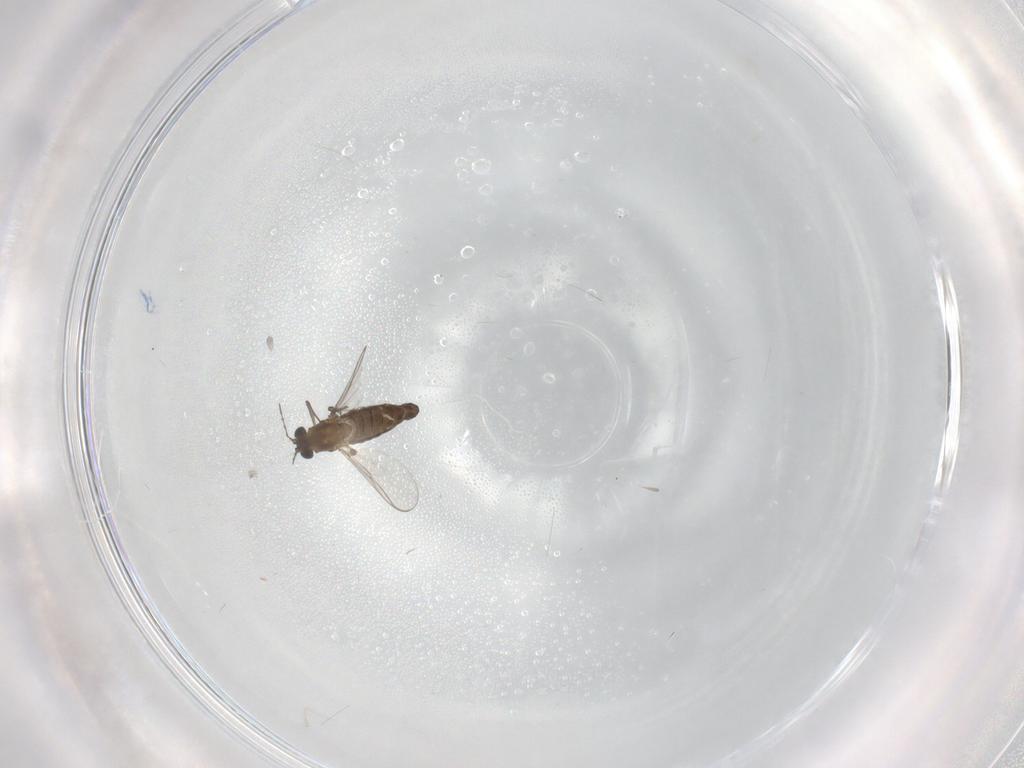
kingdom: Animalia
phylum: Arthropoda
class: Insecta
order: Diptera
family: Chironomidae
